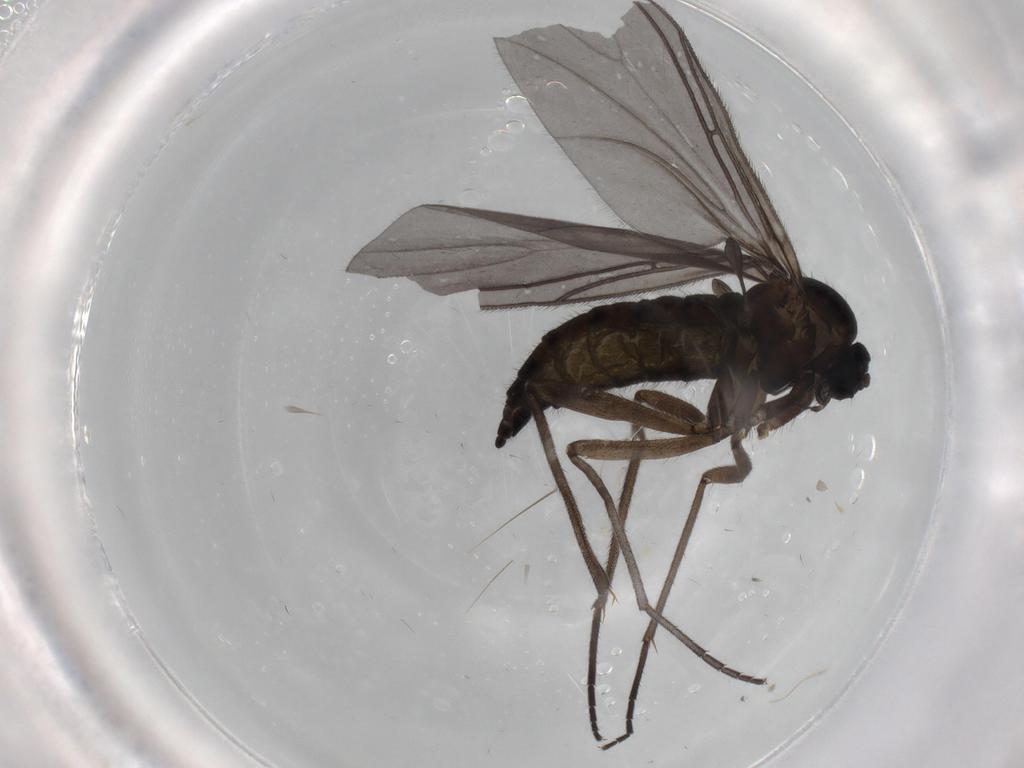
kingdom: Animalia
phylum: Arthropoda
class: Insecta
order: Diptera
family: Sciaridae
